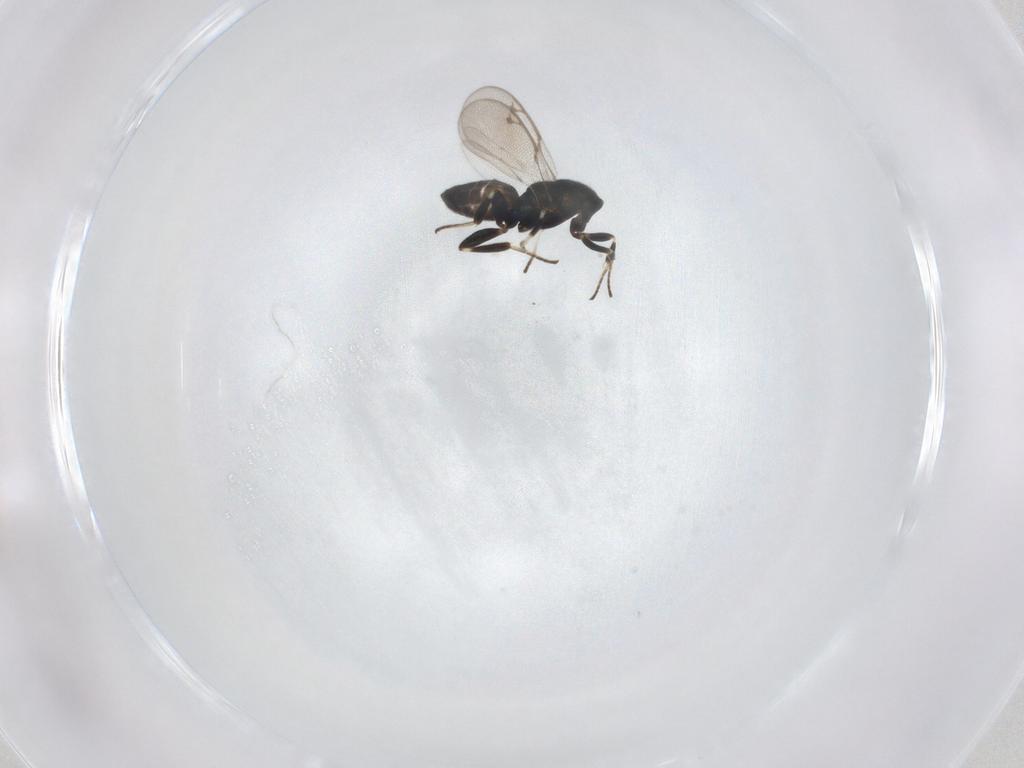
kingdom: Animalia
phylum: Arthropoda
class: Insecta
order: Hymenoptera
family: Eupelmidae
